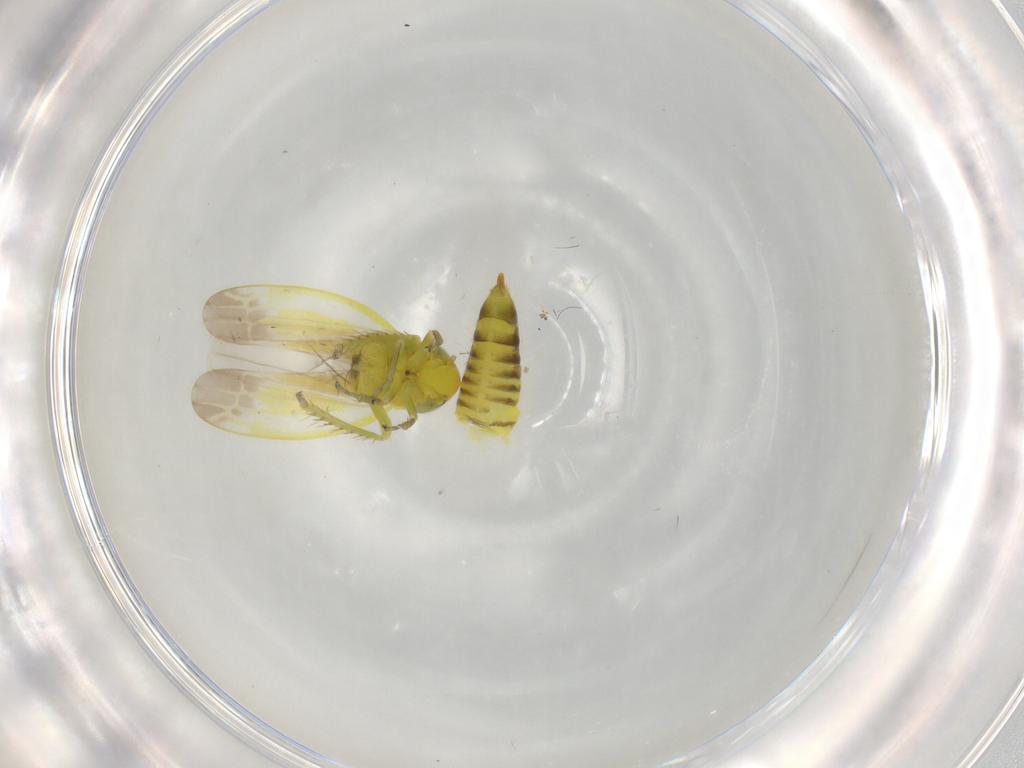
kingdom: Animalia
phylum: Arthropoda
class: Insecta
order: Hemiptera
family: Cicadellidae
